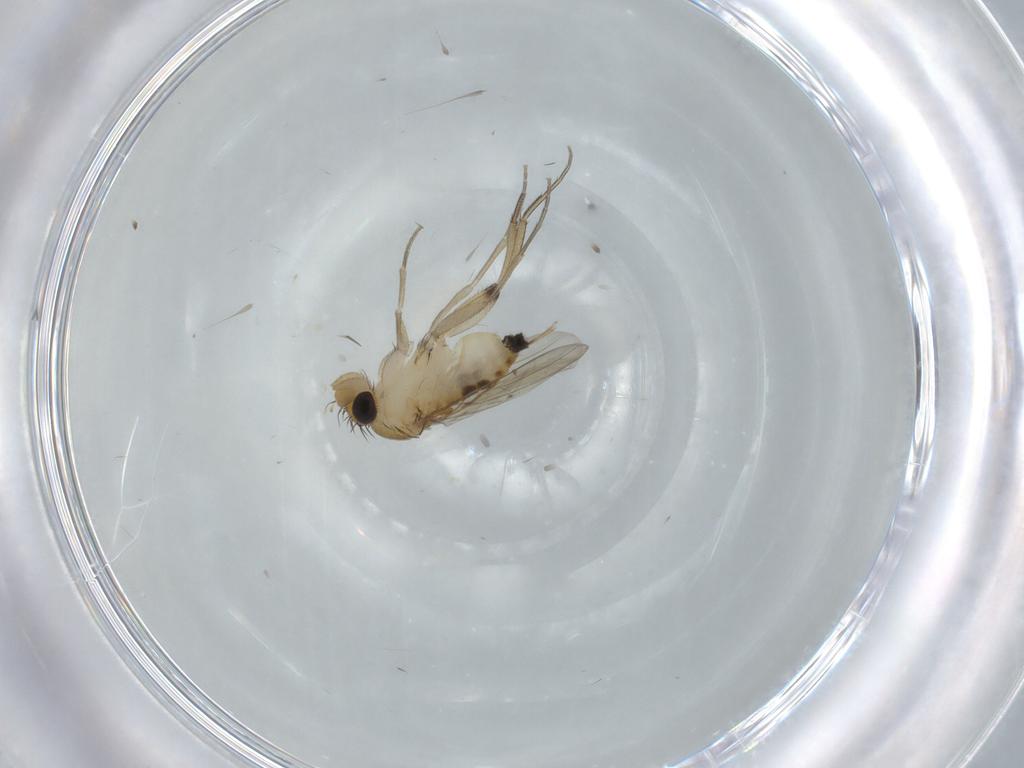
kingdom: Animalia
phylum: Arthropoda
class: Insecta
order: Diptera
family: Phoridae
